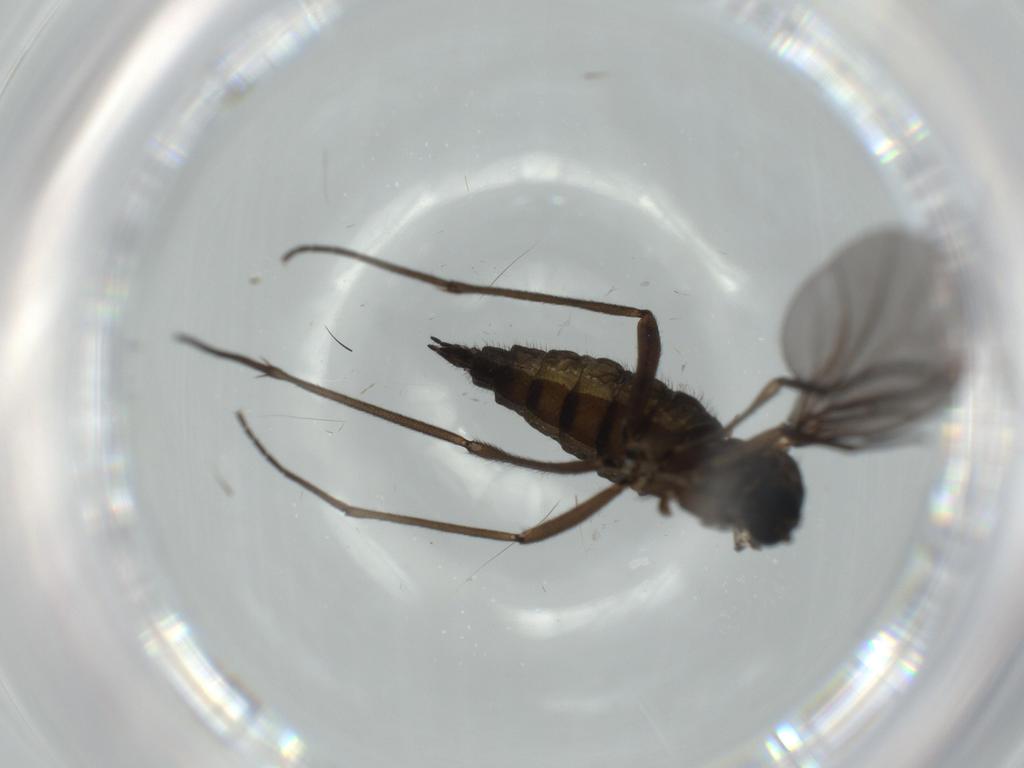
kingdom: Animalia
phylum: Arthropoda
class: Insecta
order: Diptera
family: Sciaridae
